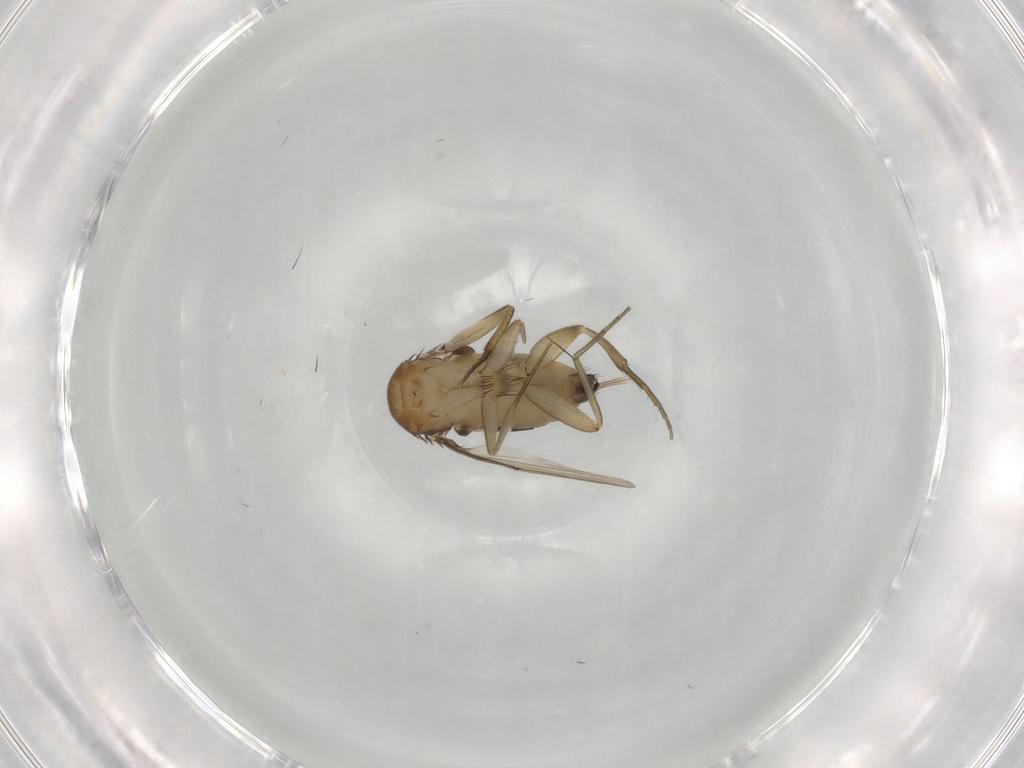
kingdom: Animalia
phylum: Arthropoda
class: Insecta
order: Diptera
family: Phoridae
